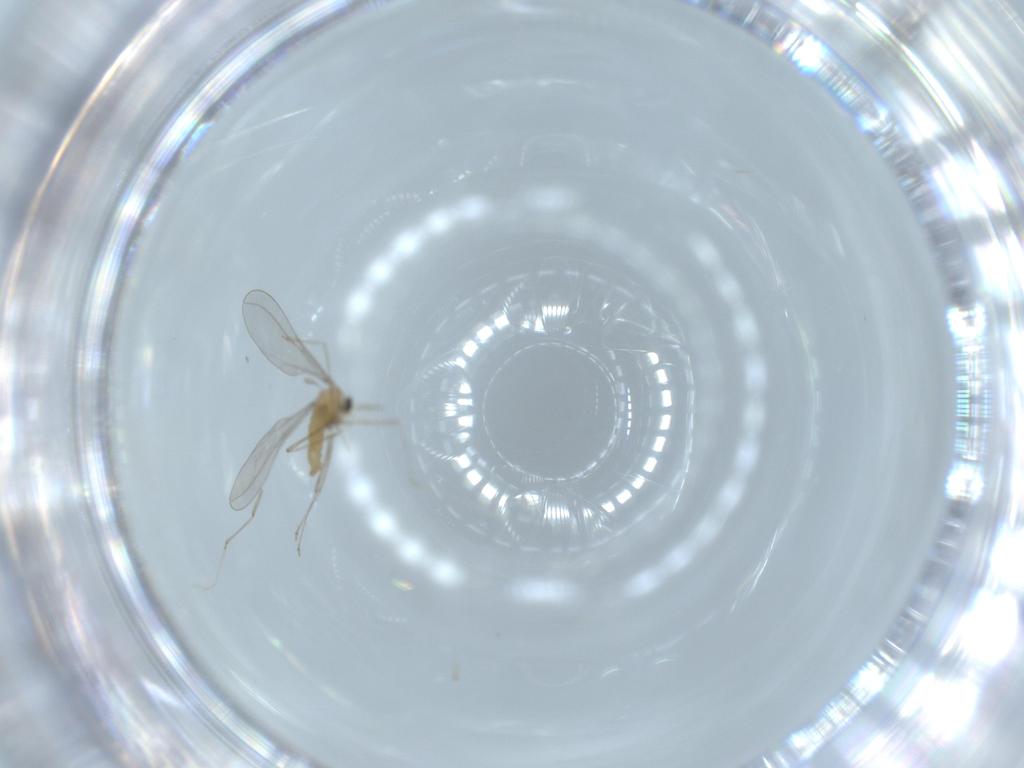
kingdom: Animalia
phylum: Arthropoda
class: Insecta
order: Diptera
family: Cecidomyiidae
